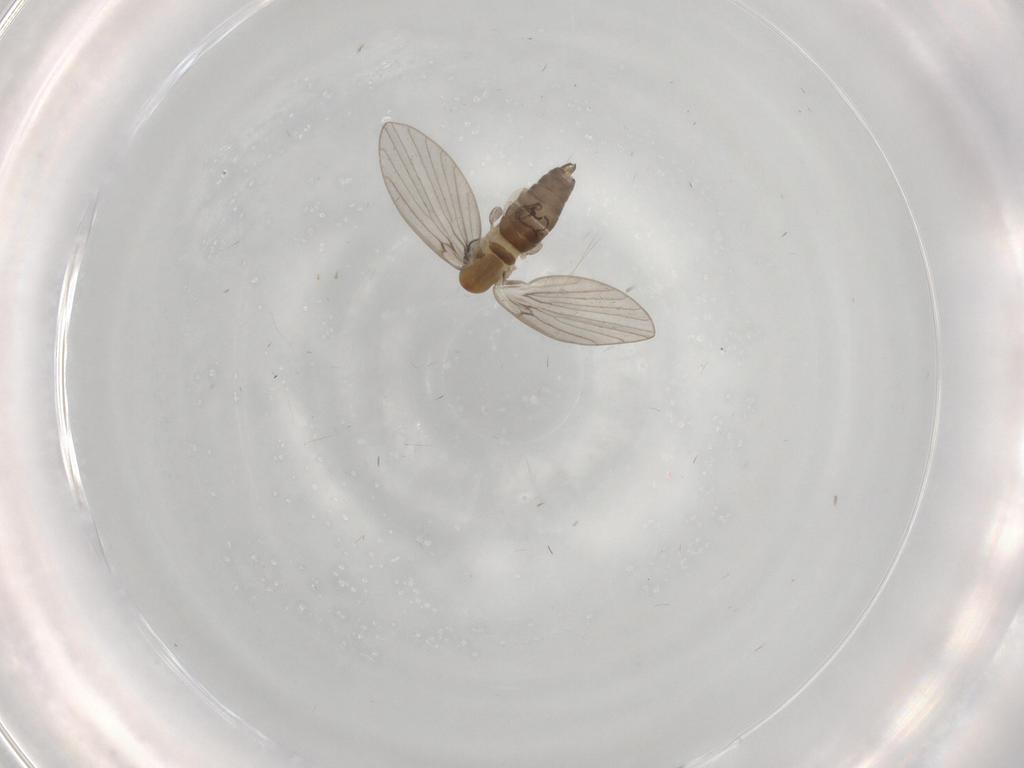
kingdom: Animalia
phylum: Arthropoda
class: Insecta
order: Diptera
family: Psychodidae
